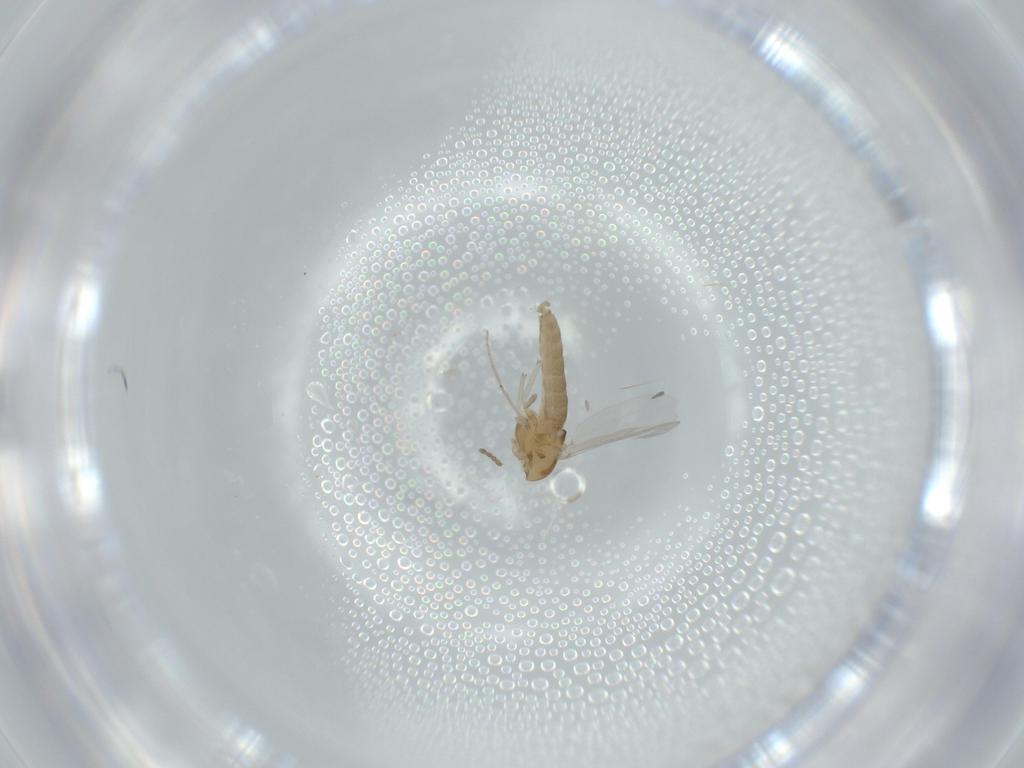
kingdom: Animalia
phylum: Arthropoda
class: Insecta
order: Diptera
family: Chironomidae
